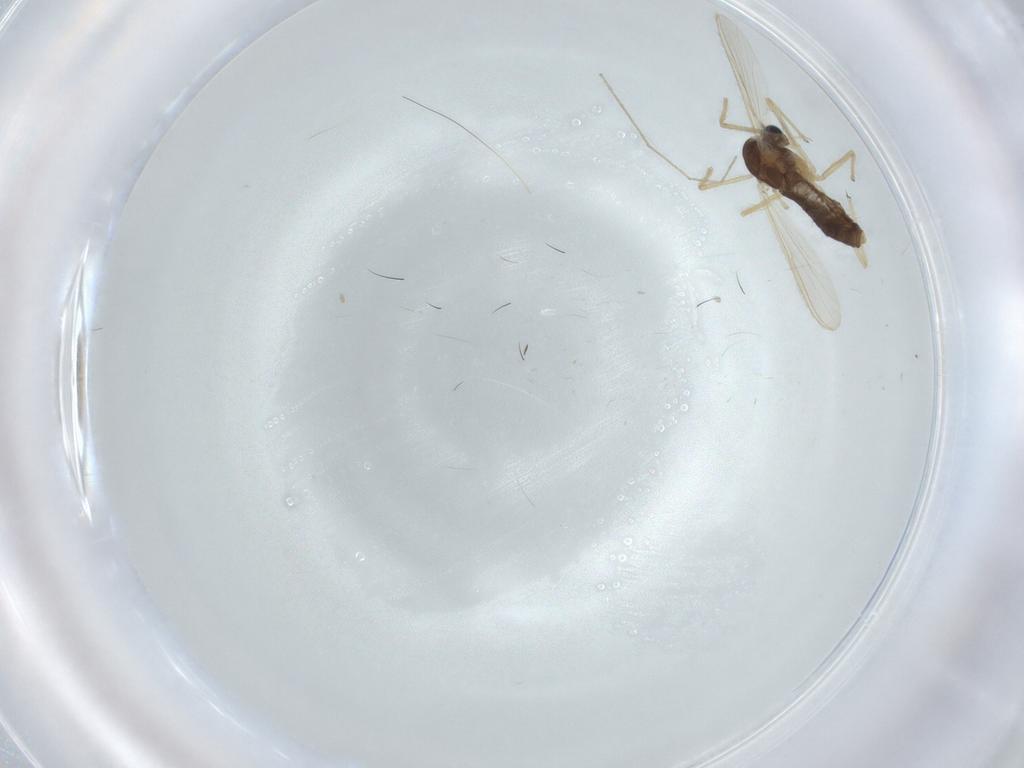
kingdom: Animalia
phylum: Arthropoda
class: Insecta
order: Diptera
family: Chironomidae
